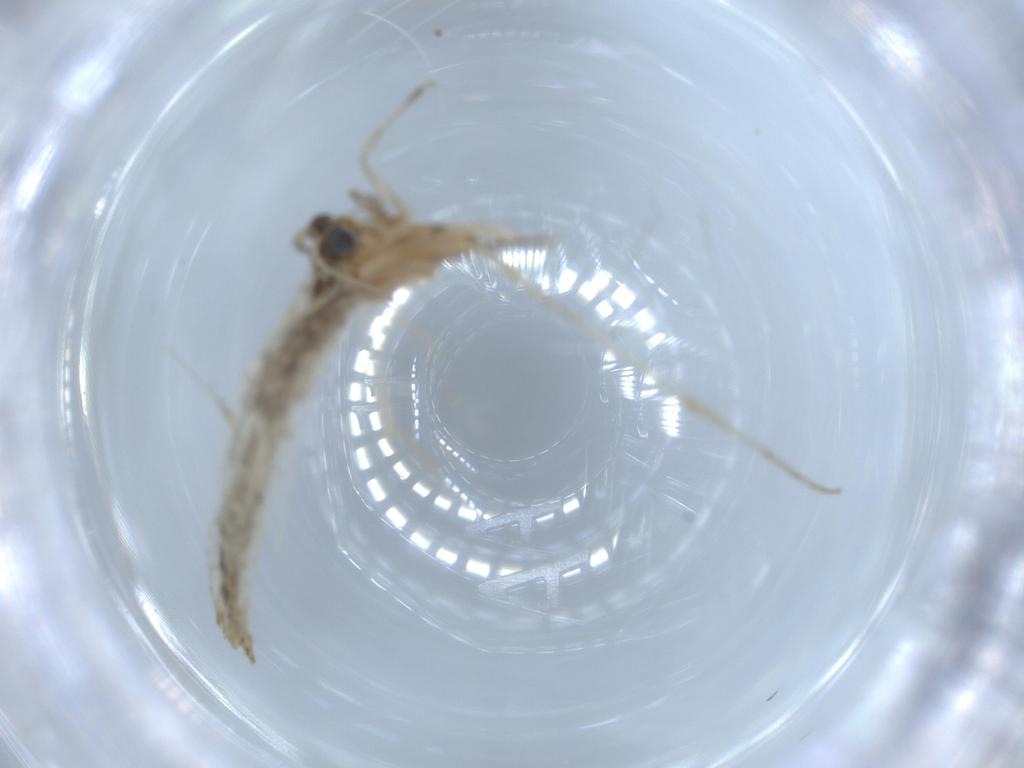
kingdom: Animalia
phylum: Arthropoda
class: Insecta
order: Lepidoptera
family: Tineidae
